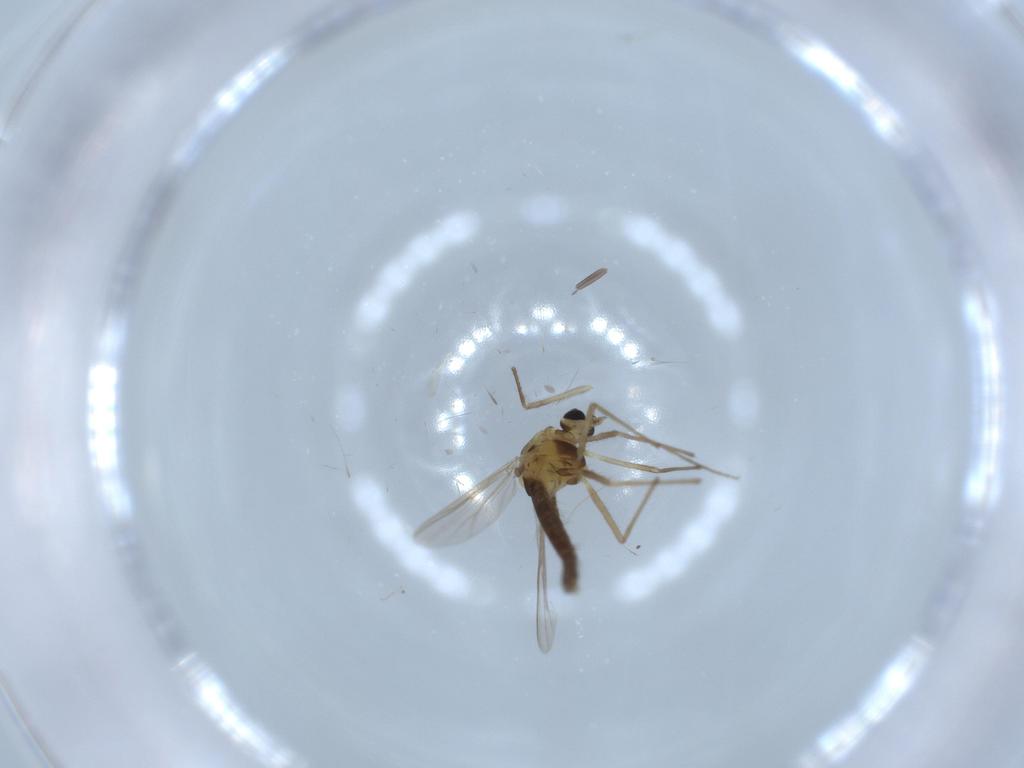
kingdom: Animalia
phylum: Arthropoda
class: Insecta
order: Diptera
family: Chironomidae
